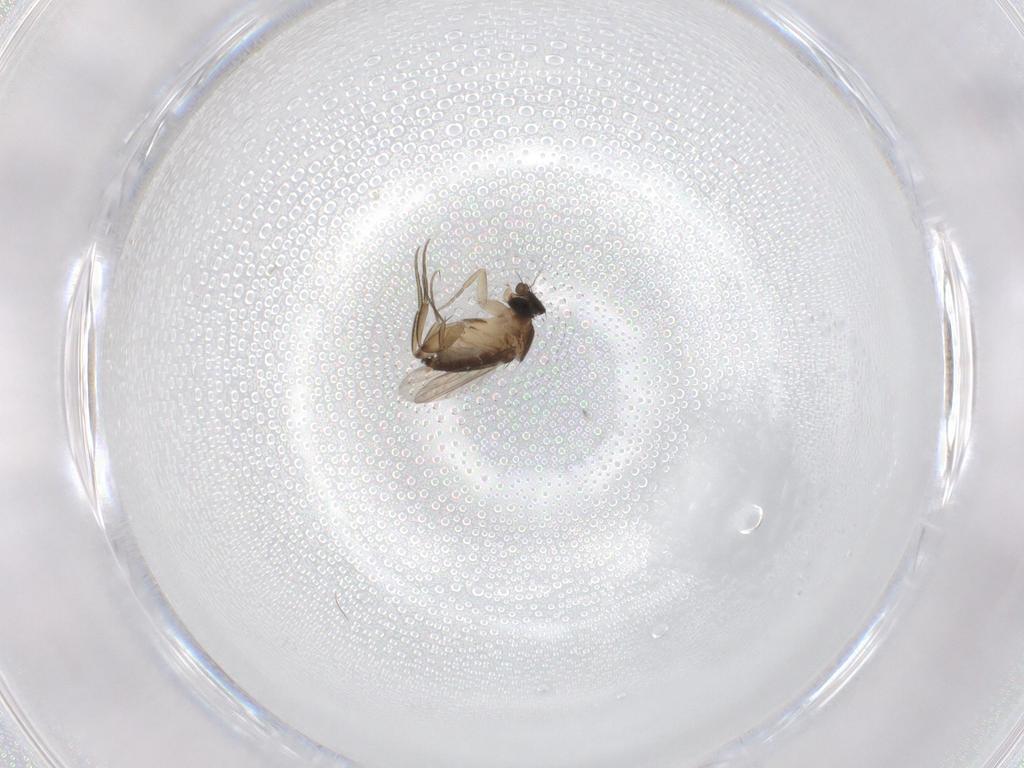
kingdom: Animalia
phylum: Arthropoda
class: Insecta
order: Diptera
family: Phoridae
